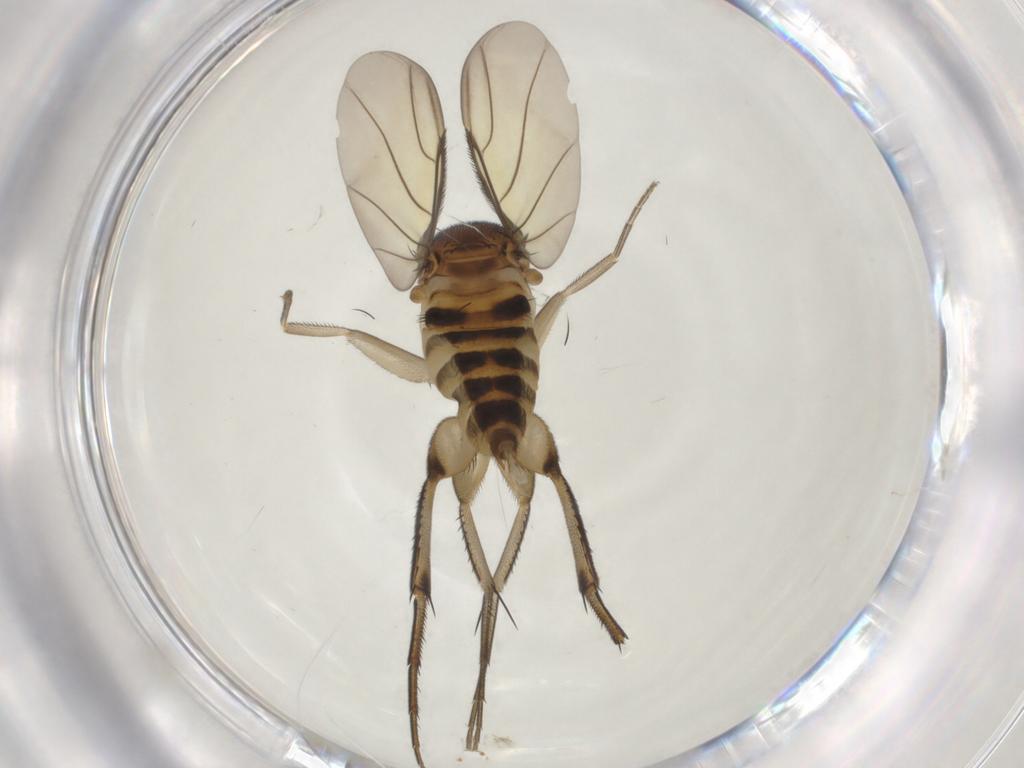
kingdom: Animalia
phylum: Arthropoda
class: Insecta
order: Diptera
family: Phoridae
